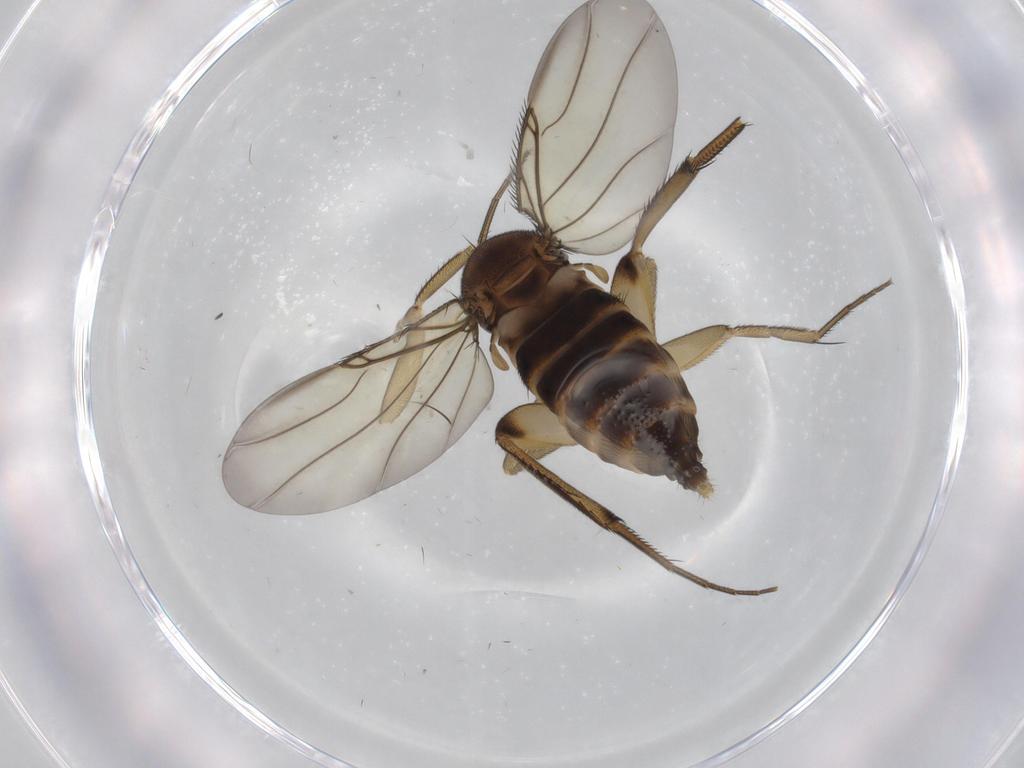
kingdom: Animalia
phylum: Arthropoda
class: Insecta
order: Diptera
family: Phoridae
